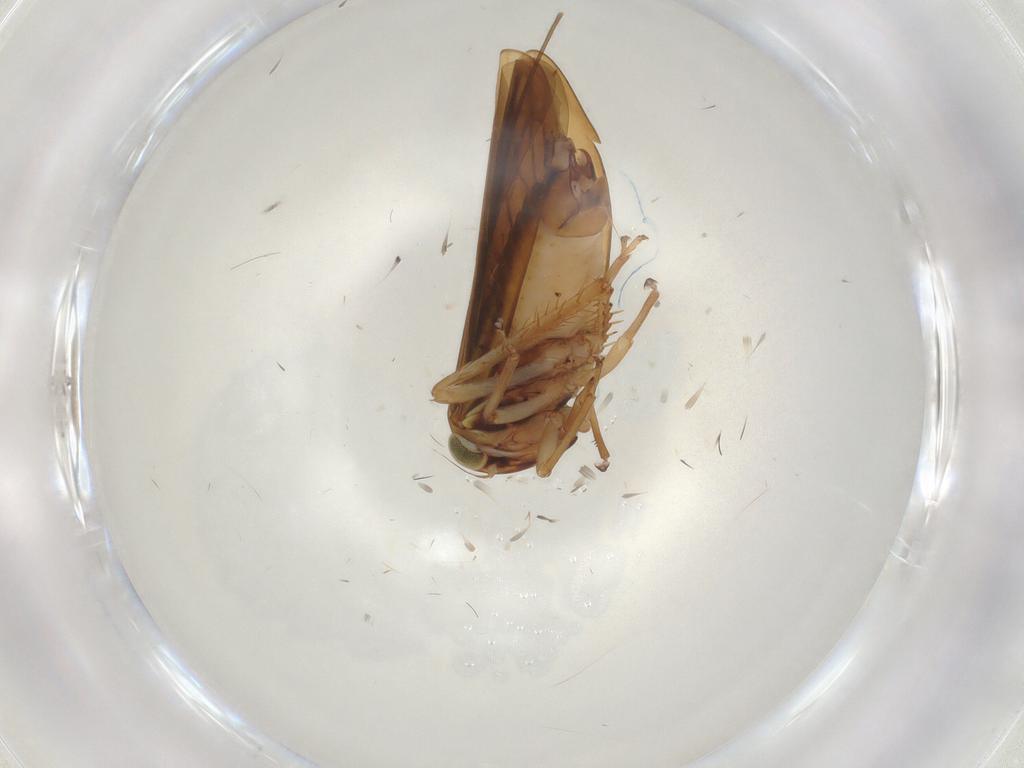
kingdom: Animalia
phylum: Arthropoda
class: Insecta
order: Hemiptera
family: Cicadellidae
